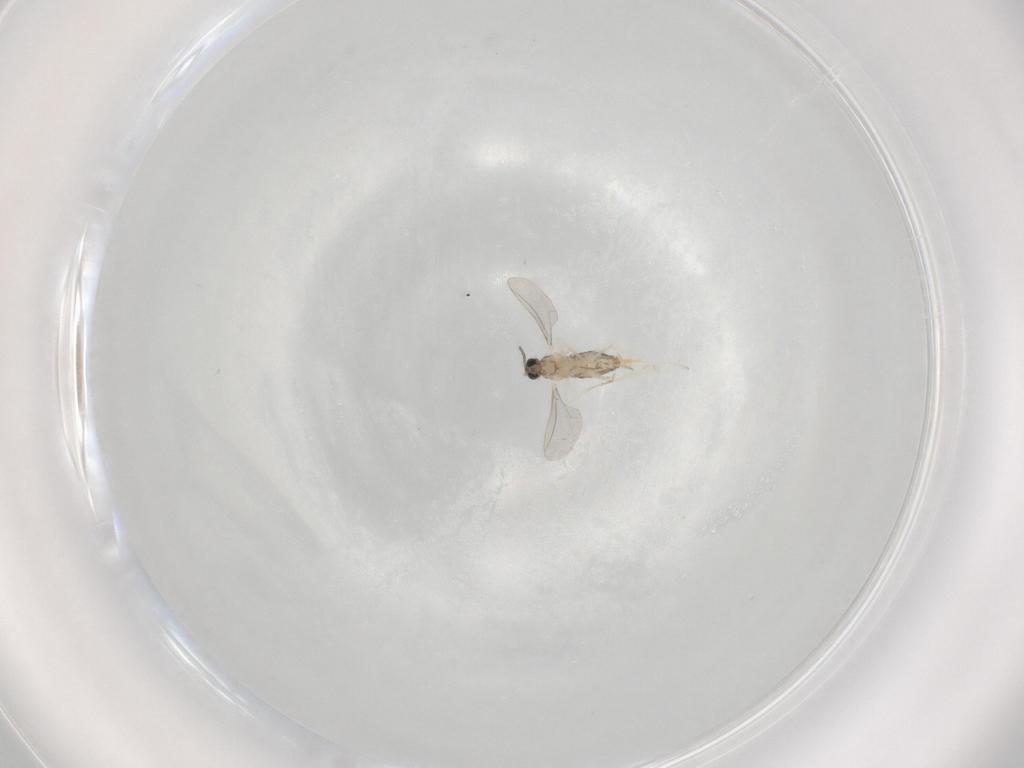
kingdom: Animalia
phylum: Arthropoda
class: Insecta
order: Diptera
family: Cecidomyiidae
